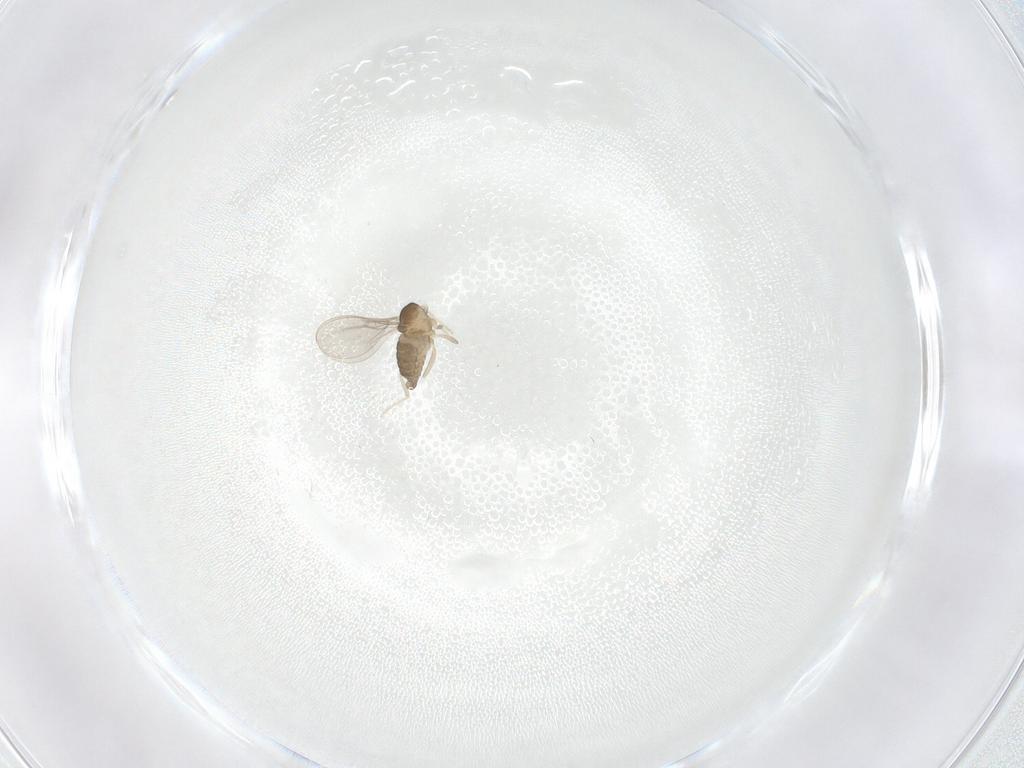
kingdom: Animalia
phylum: Arthropoda
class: Insecta
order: Diptera
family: Cecidomyiidae
